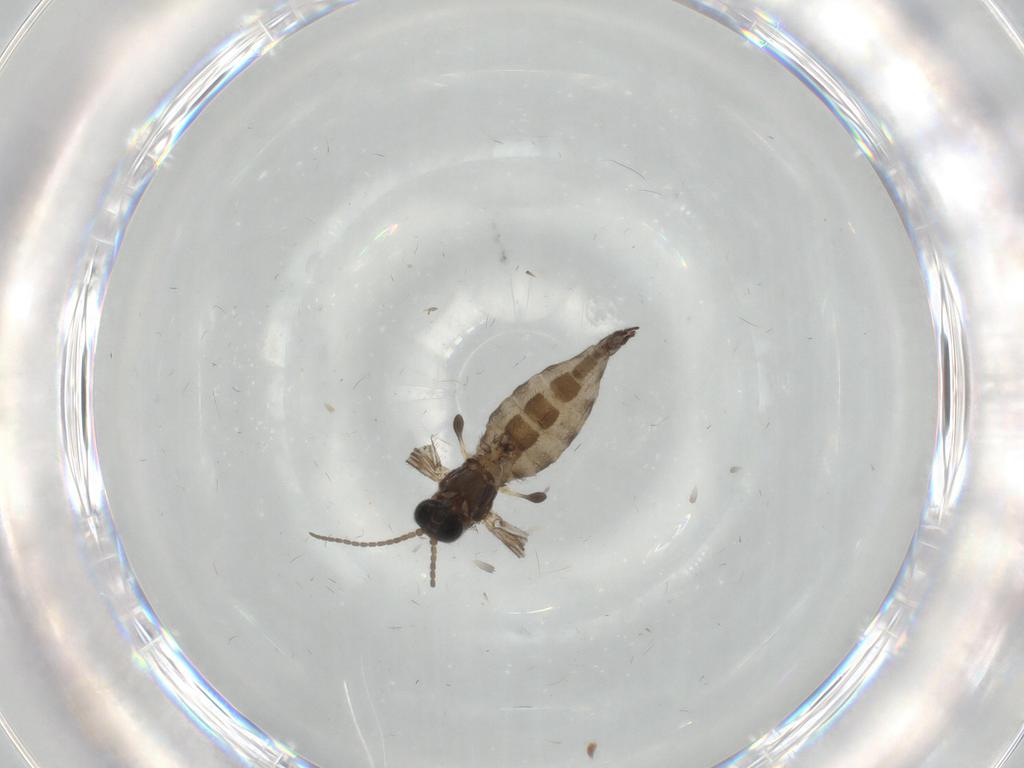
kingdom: Animalia
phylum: Arthropoda
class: Insecta
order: Diptera
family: Sciaridae
